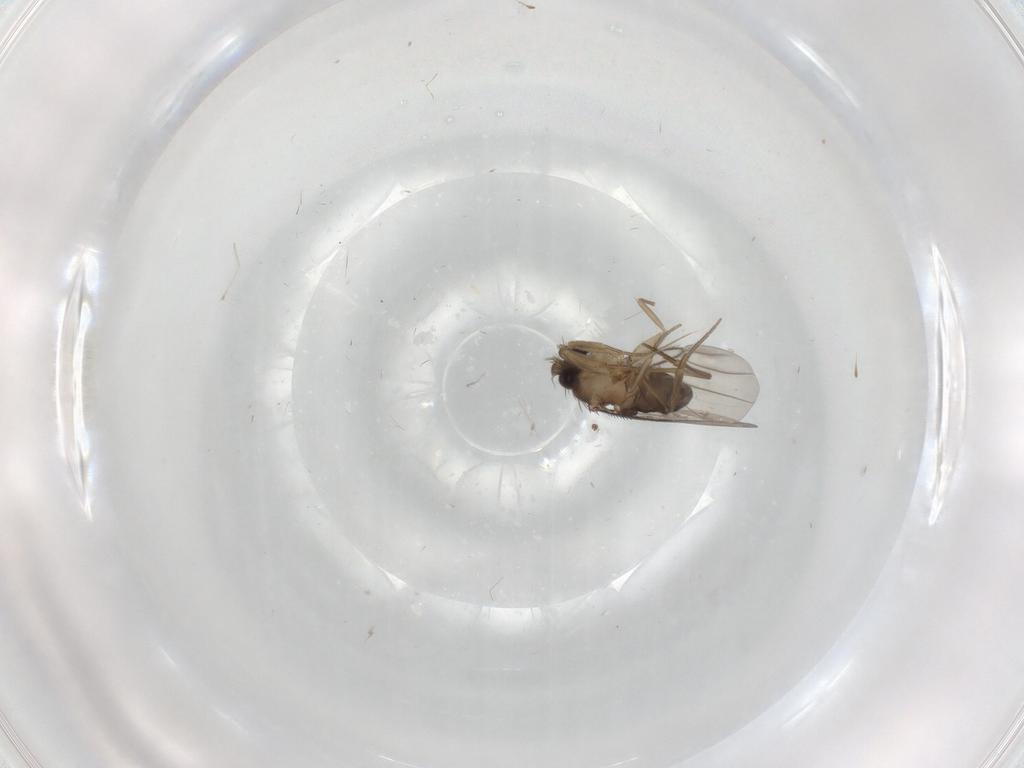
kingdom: Animalia
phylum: Arthropoda
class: Insecta
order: Diptera
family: Chironomidae
